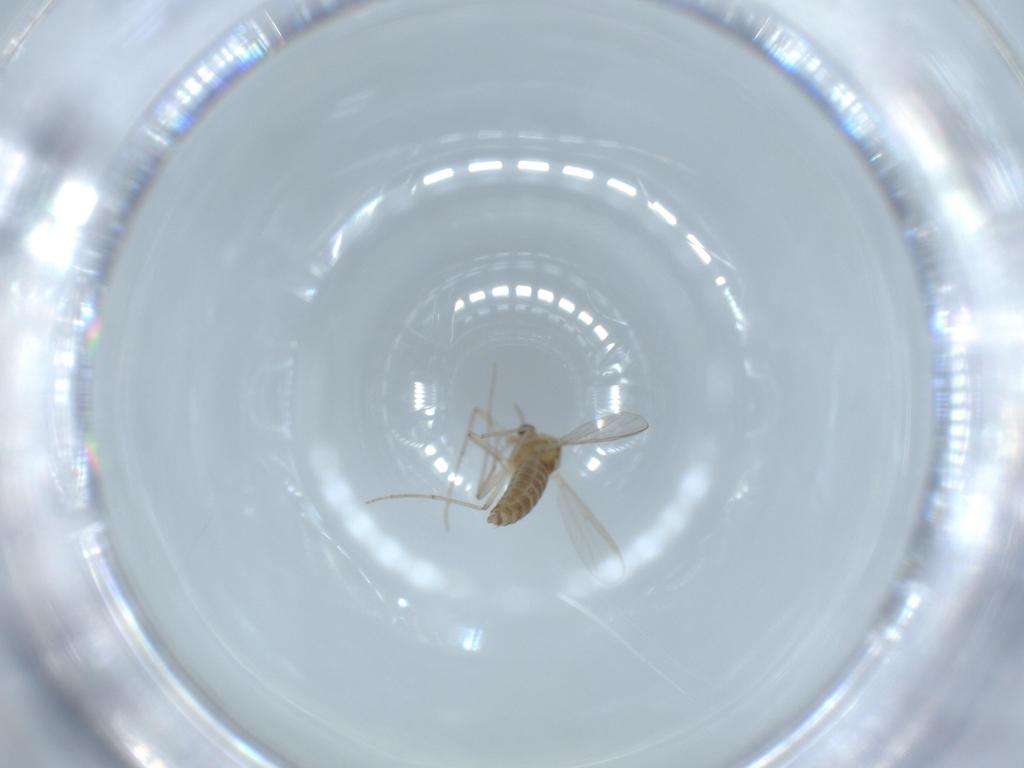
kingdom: Animalia
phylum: Arthropoda
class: Insecta
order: Diptera
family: Chironomidae
